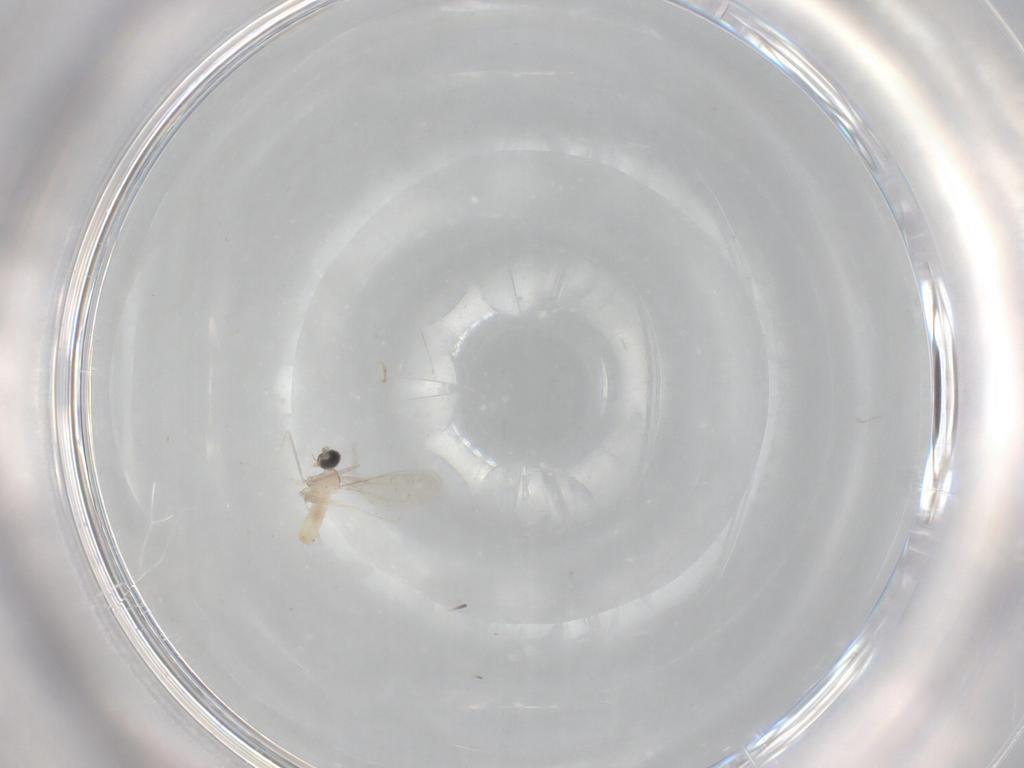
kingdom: Animalia
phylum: Arthropoda
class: Insecta
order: Diptera
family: Cecidomyiidae
